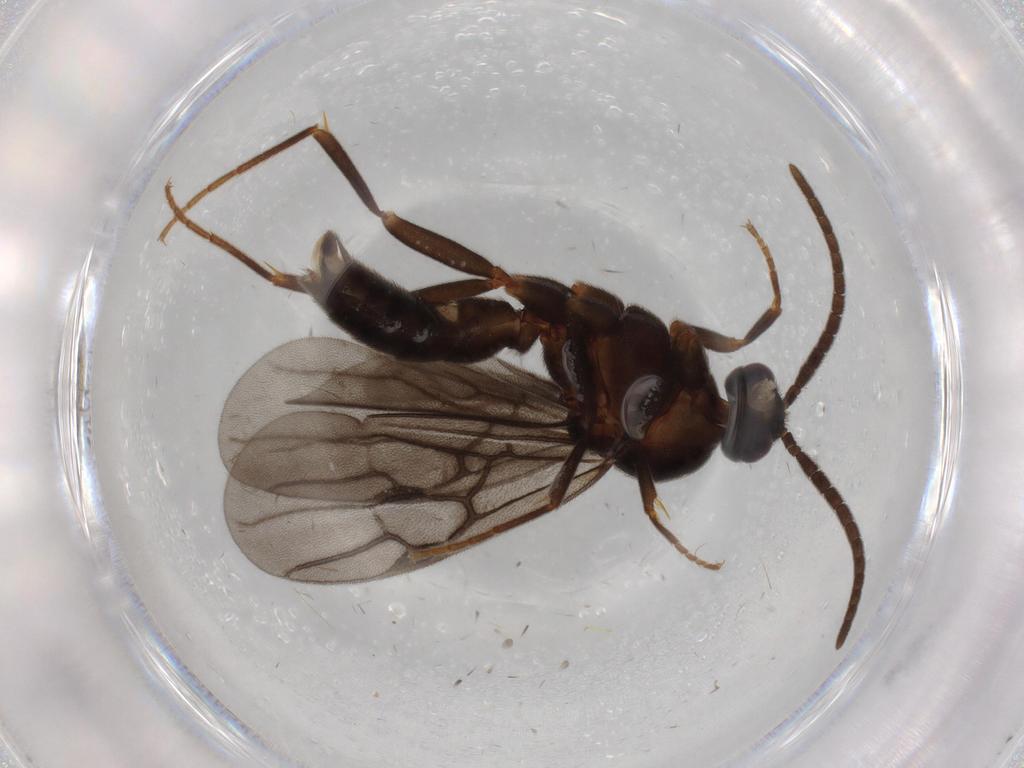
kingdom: Animalia
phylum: Arthropoda
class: Insecta
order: Hymenoptera
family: Formicidae
